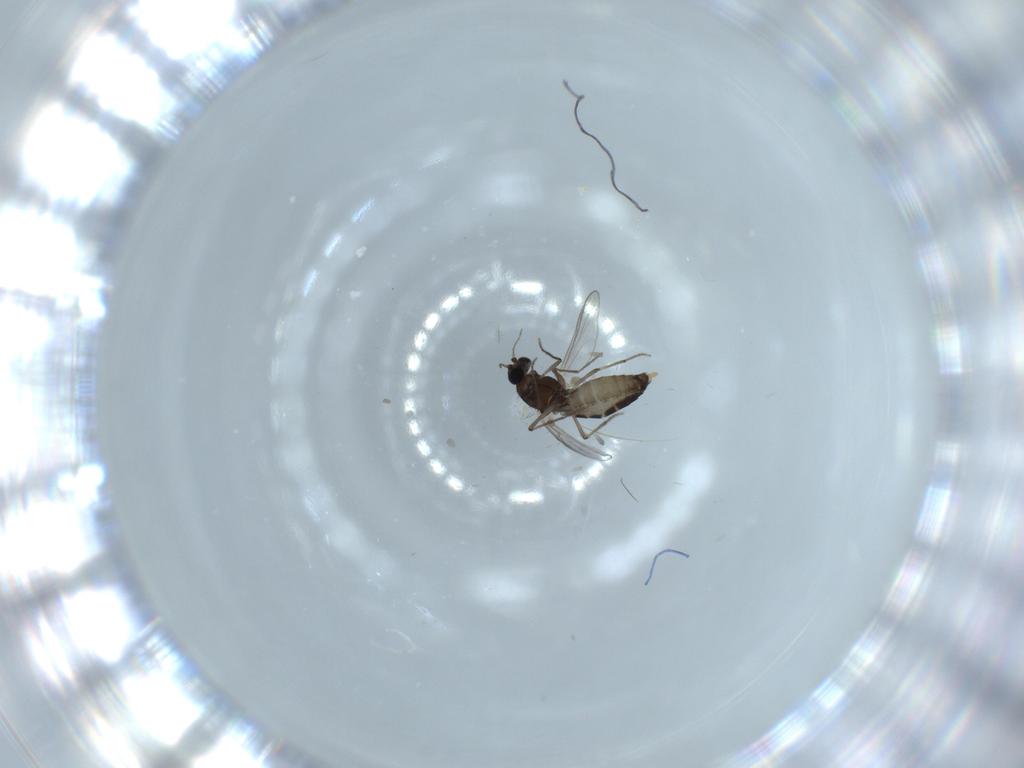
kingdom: Animalia
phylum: Arthropoda
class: Insecta
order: Diptera
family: Chironomidae
